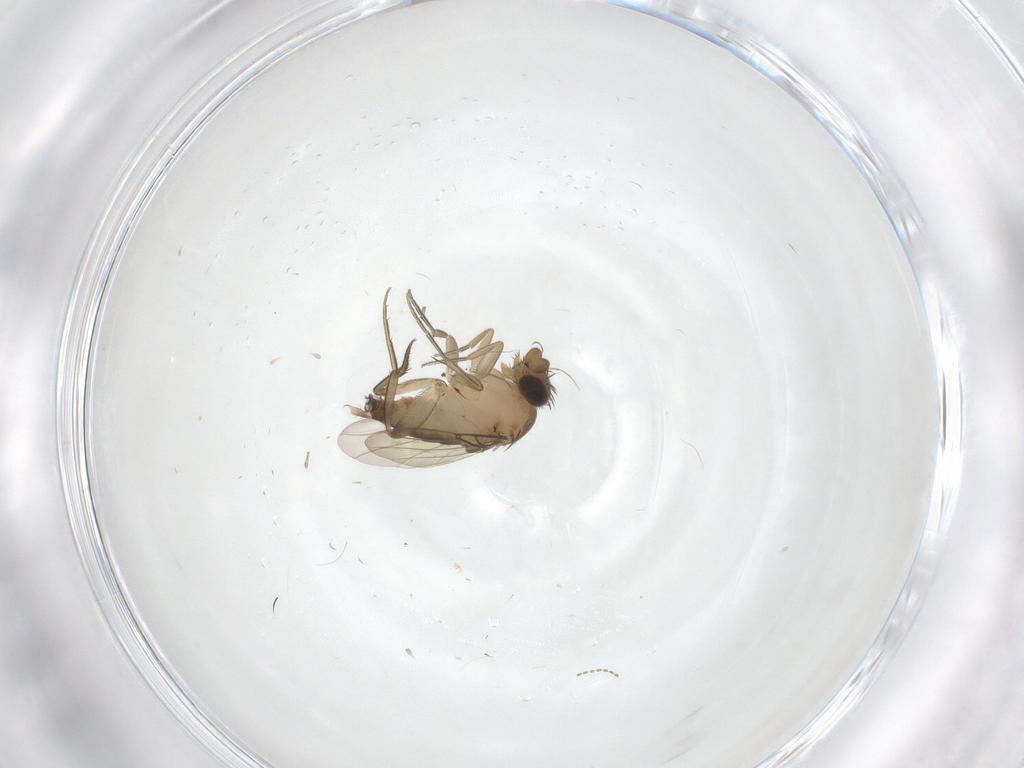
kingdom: Animalia
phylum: Arthropoda
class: Insecta
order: Diptera
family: Phoridae
